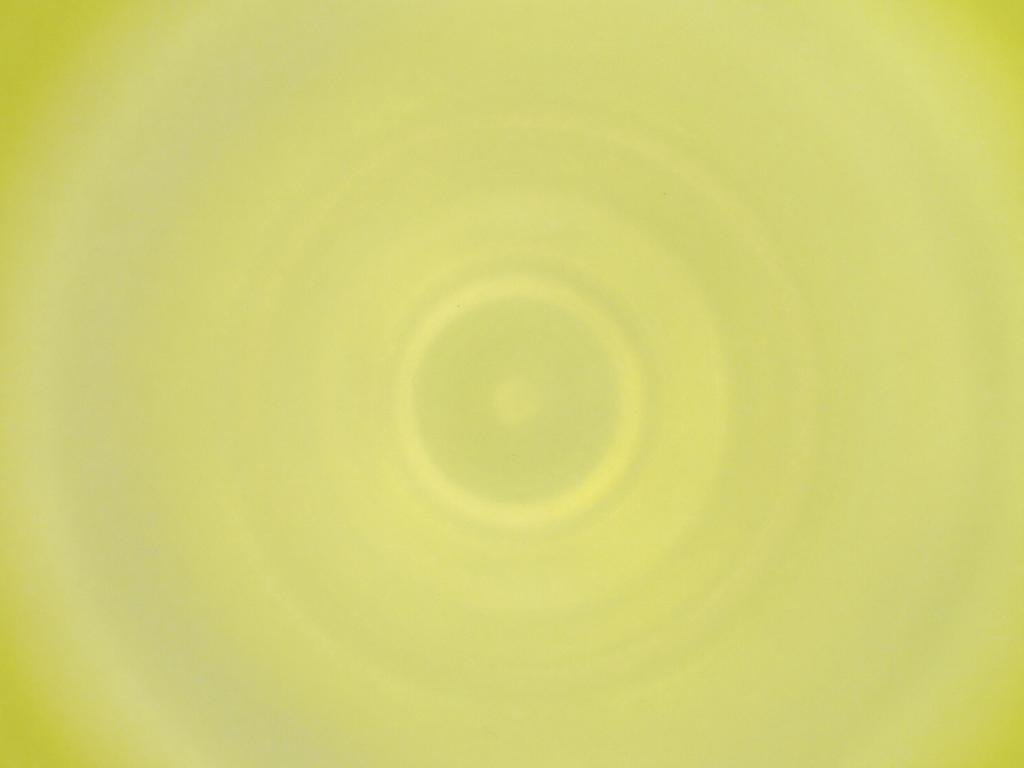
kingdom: Animalia
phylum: Arthropoda
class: Insecta
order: Diptera
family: Cecidomyiidae
